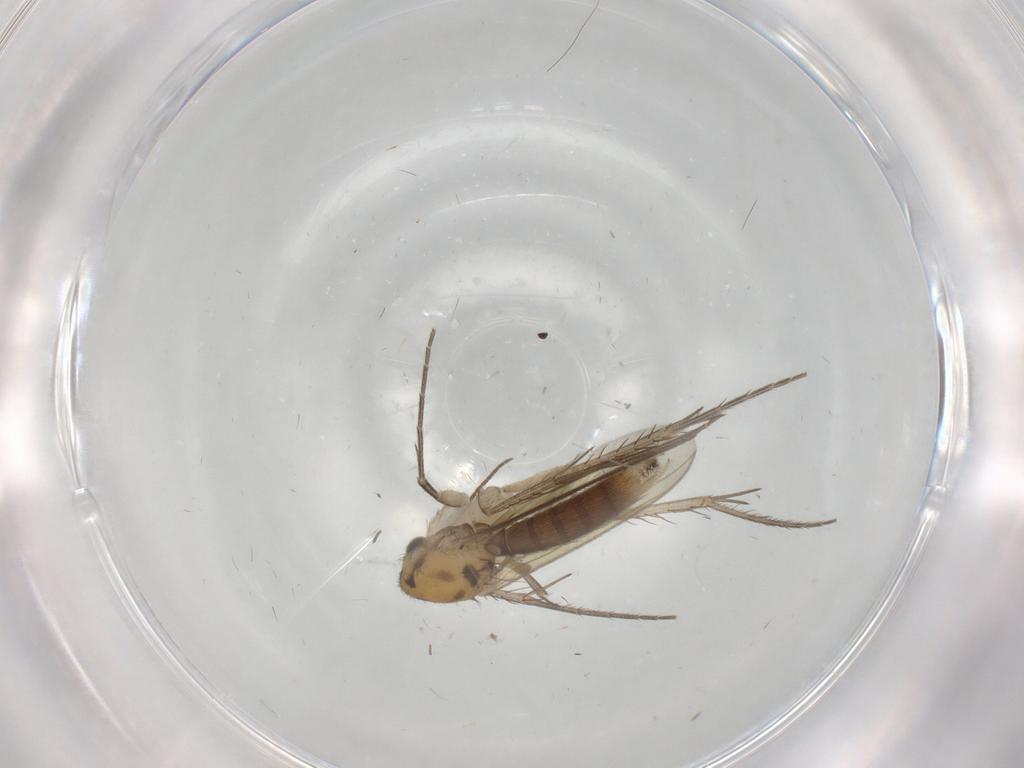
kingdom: Animalia
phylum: Arthropoda
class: Insecta
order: Diptera
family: Mycetophilidae
